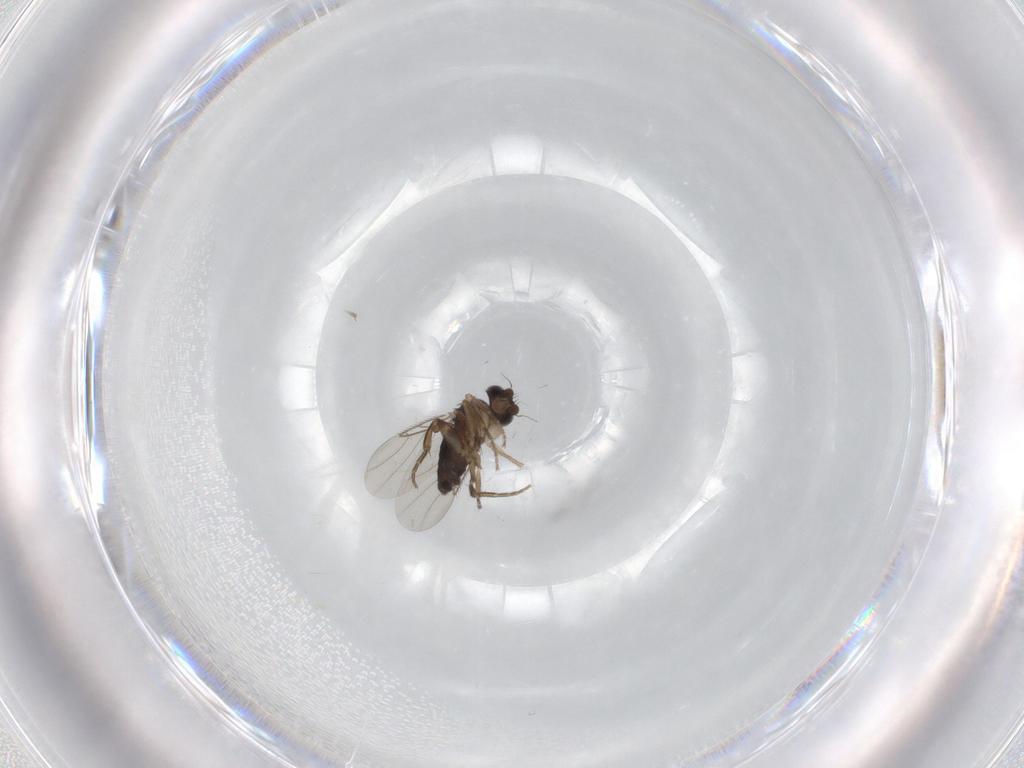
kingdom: Animalia
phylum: Arthropoda
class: Insecta
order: Diptera
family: Phoridae
